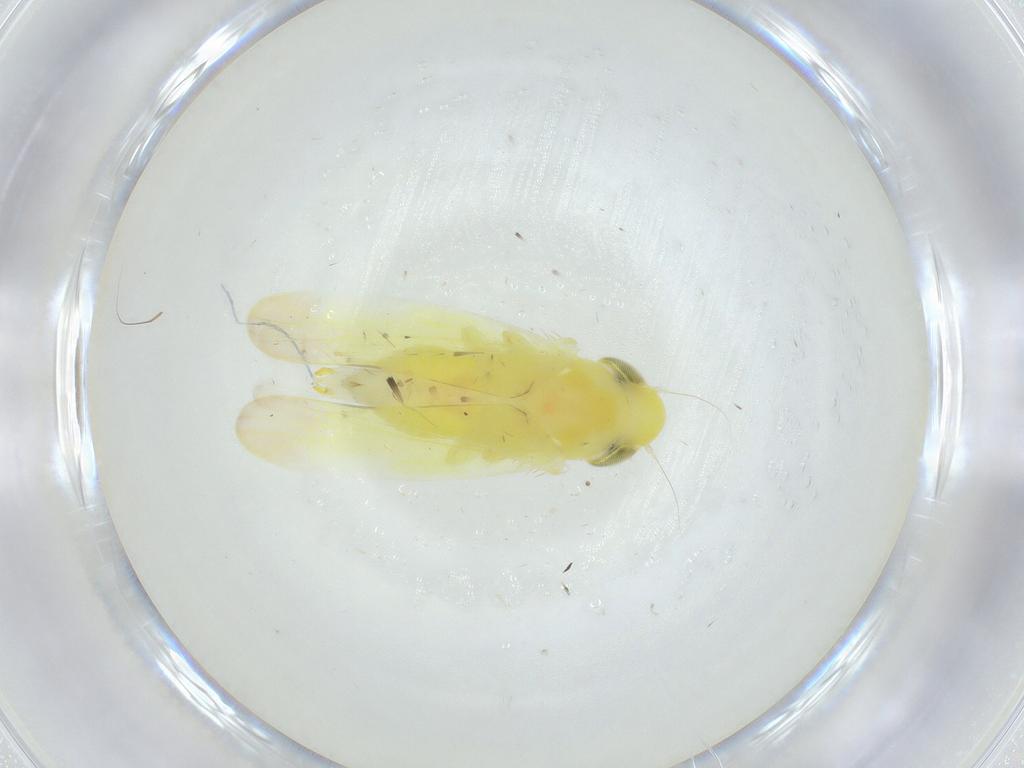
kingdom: Animalia
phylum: Arthropoda
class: Insecta
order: Hemiptera
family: Cicadellidae
